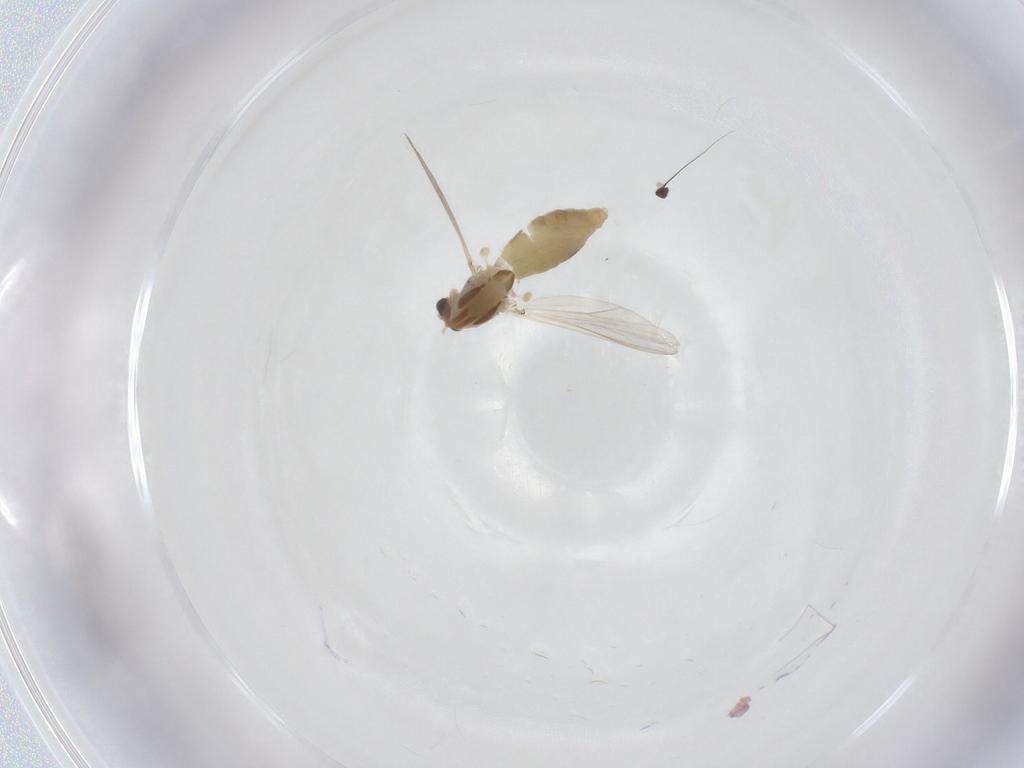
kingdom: Animalia
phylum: Arthropoda
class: Insecta
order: Diptera
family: Chironomidae
